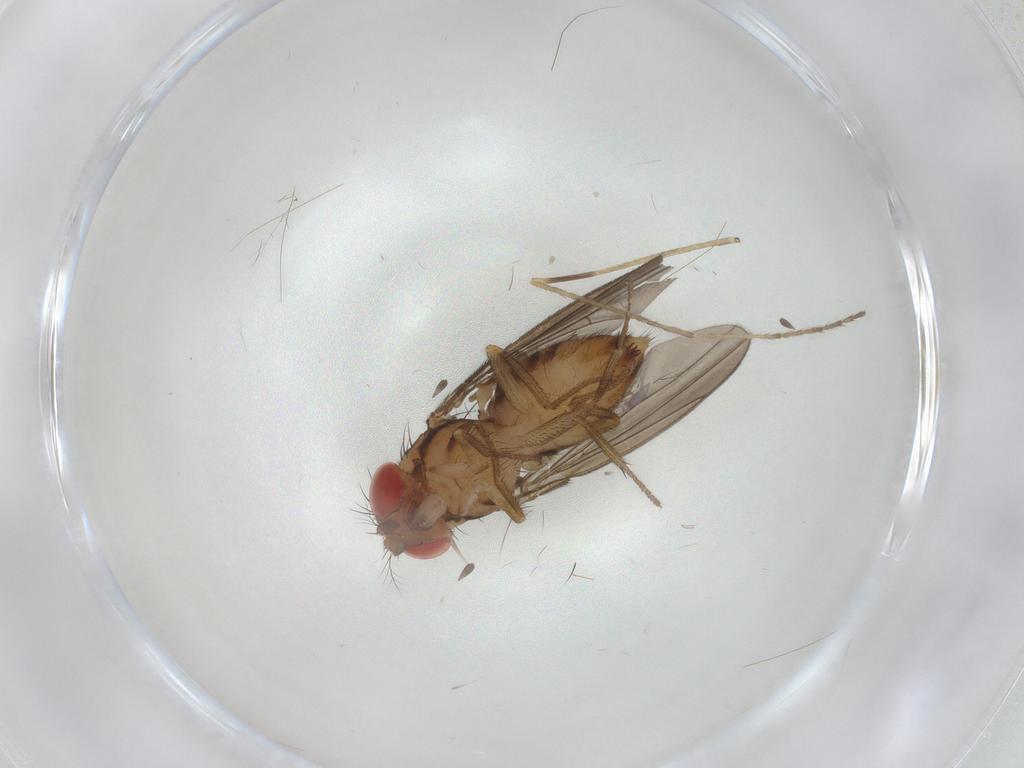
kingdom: Animalia
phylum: Arthropoda
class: Insecta
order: Diptera
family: Drosophilidae
